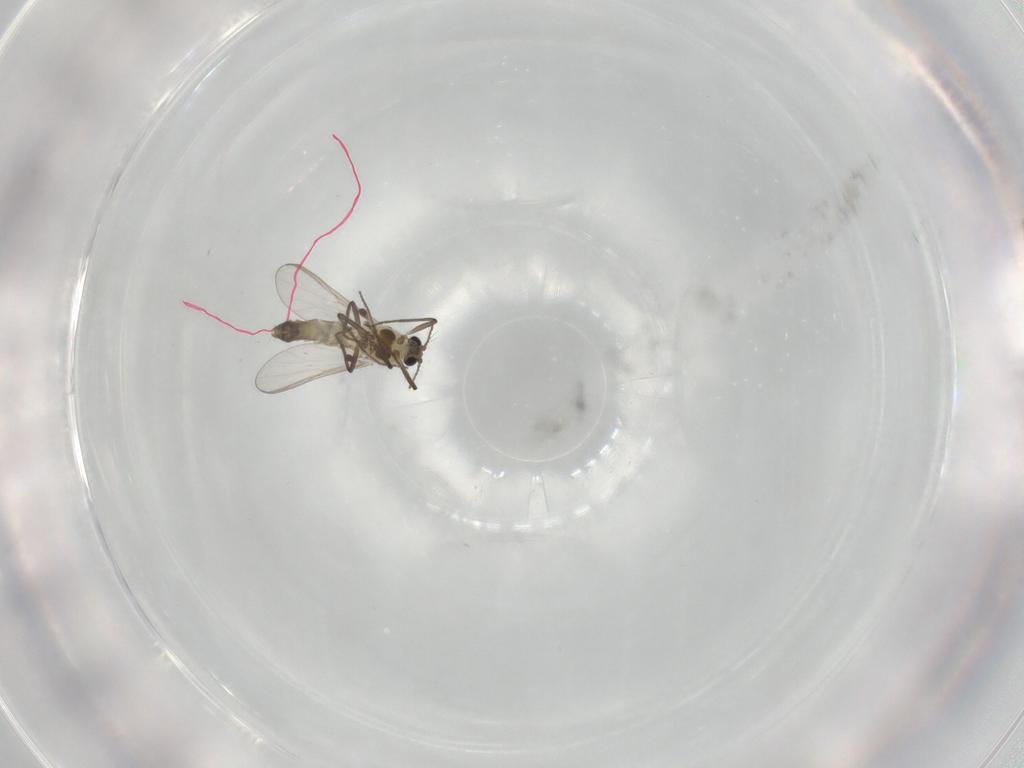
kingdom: Animalia
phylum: Arthropoda
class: Insecta
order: Diptera
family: Chironomidae
